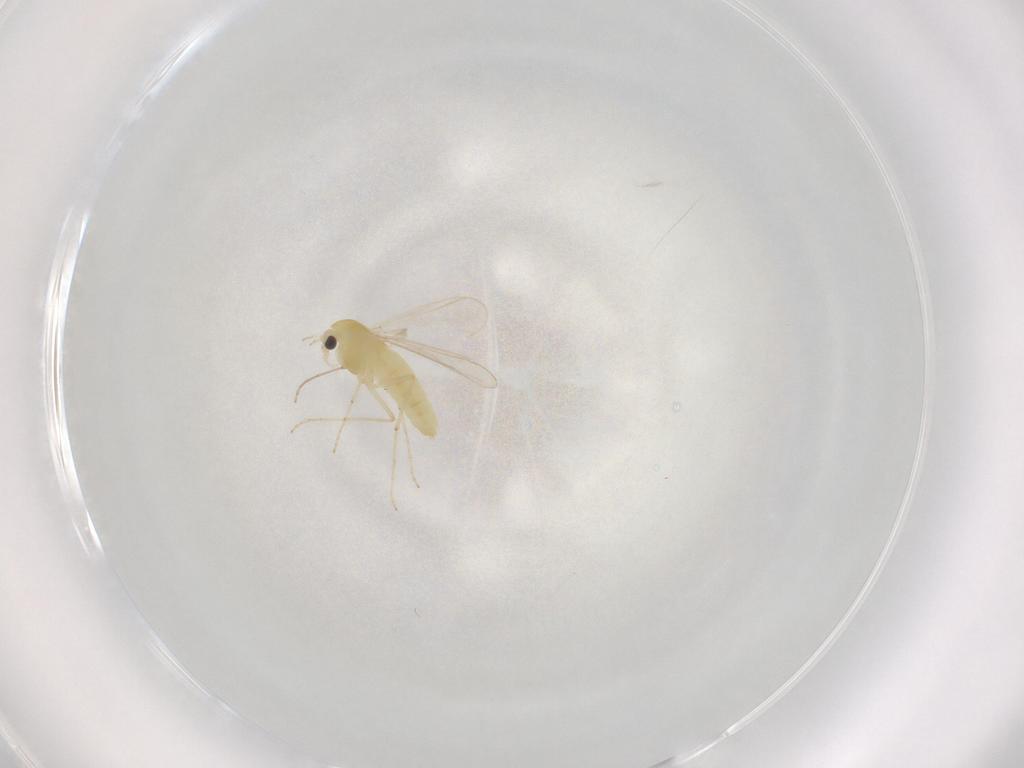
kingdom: Animalia
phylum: Arthropoda
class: Insecta
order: Diptera
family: Chironomidae
